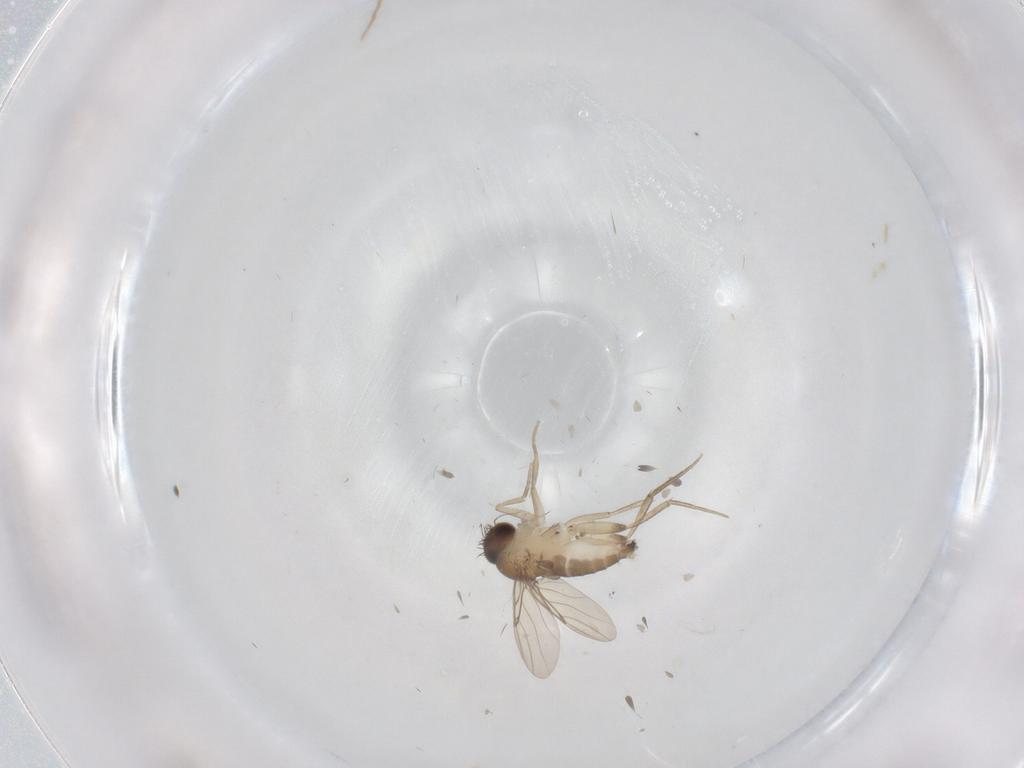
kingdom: Animalia
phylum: Arthropoda
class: Insecta
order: Diptera
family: Phoridae
